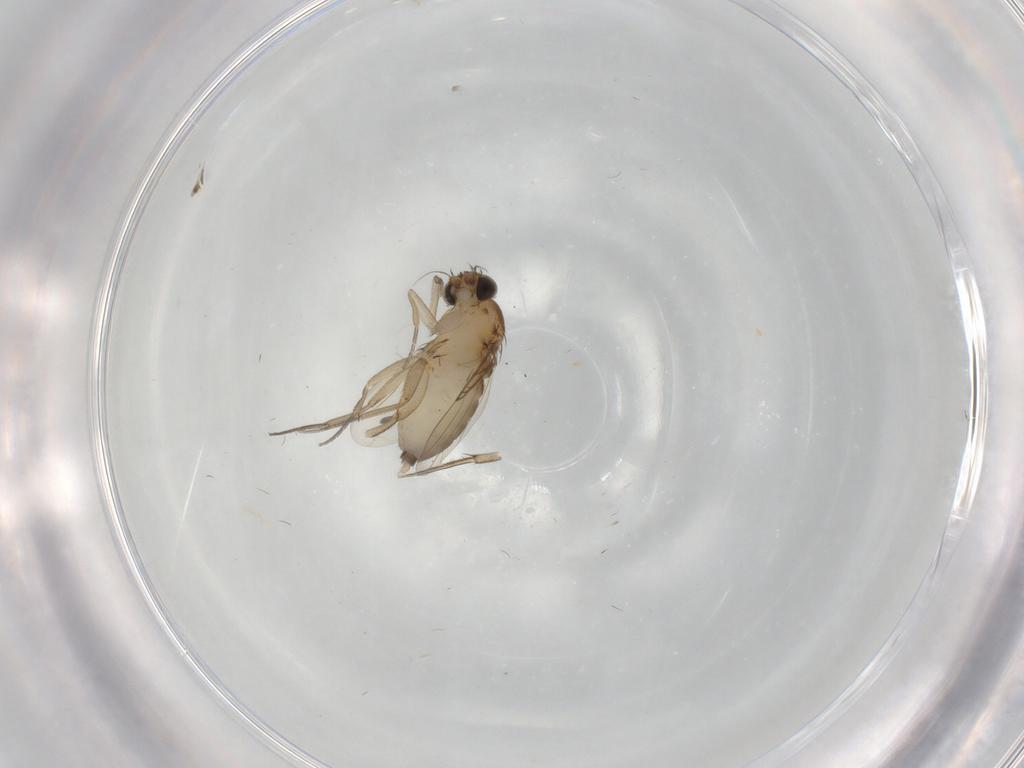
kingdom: Animalia
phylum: Arthropoda
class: Insecta
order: Diptera
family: Phoridae
